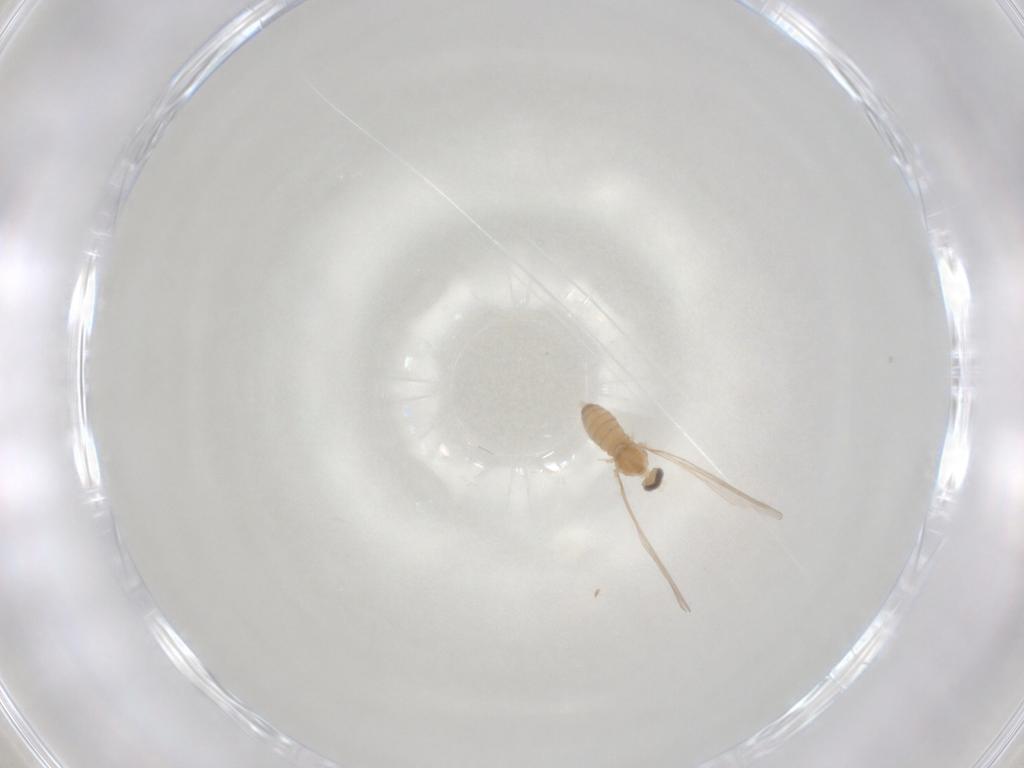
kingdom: Animalia
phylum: Arthropoda
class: Insecta
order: Diptera
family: Cecidomyiidae
